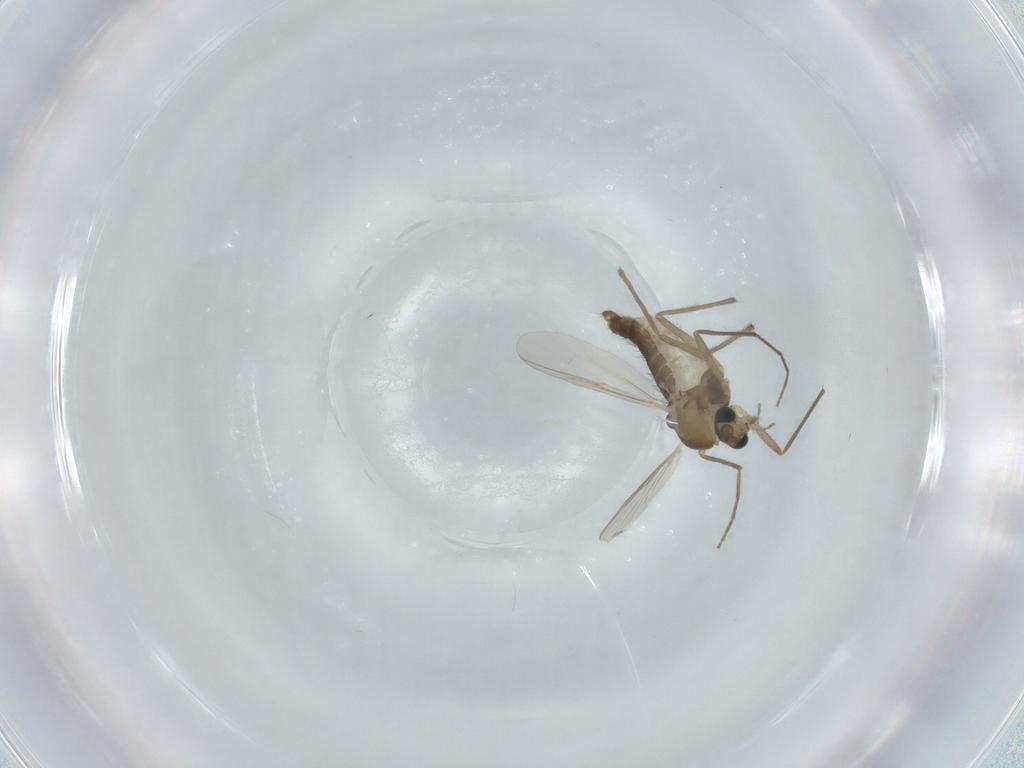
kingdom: Animalia
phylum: Arthropoda
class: Insecta
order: Diptera
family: Chironomidae
